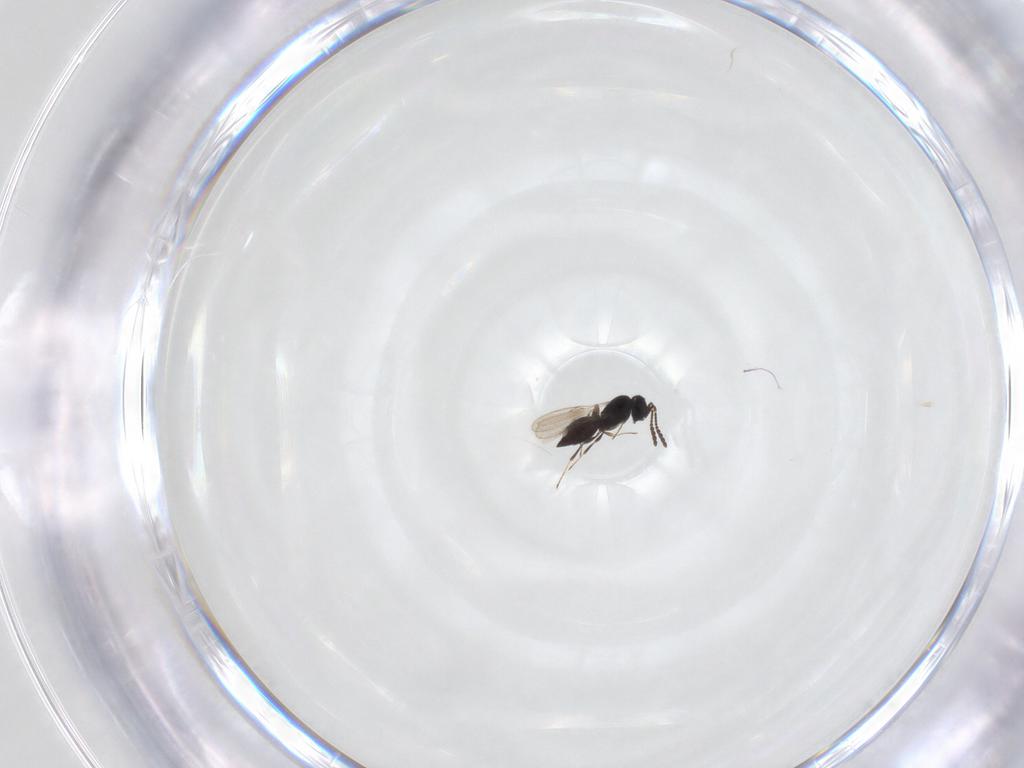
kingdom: Animalia
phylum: Arthropoda
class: Insecta
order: Hymenoptera
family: Scelionidae
